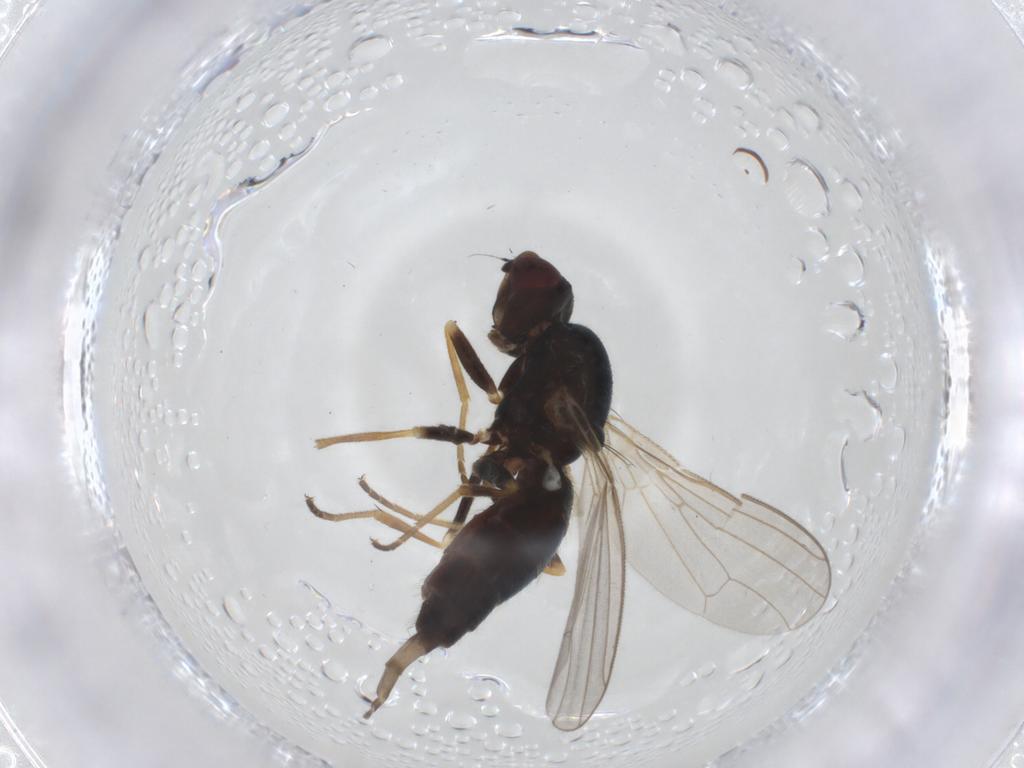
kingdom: Animalia
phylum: Arthropoda
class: Insecta
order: Diptera
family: Psilidae
